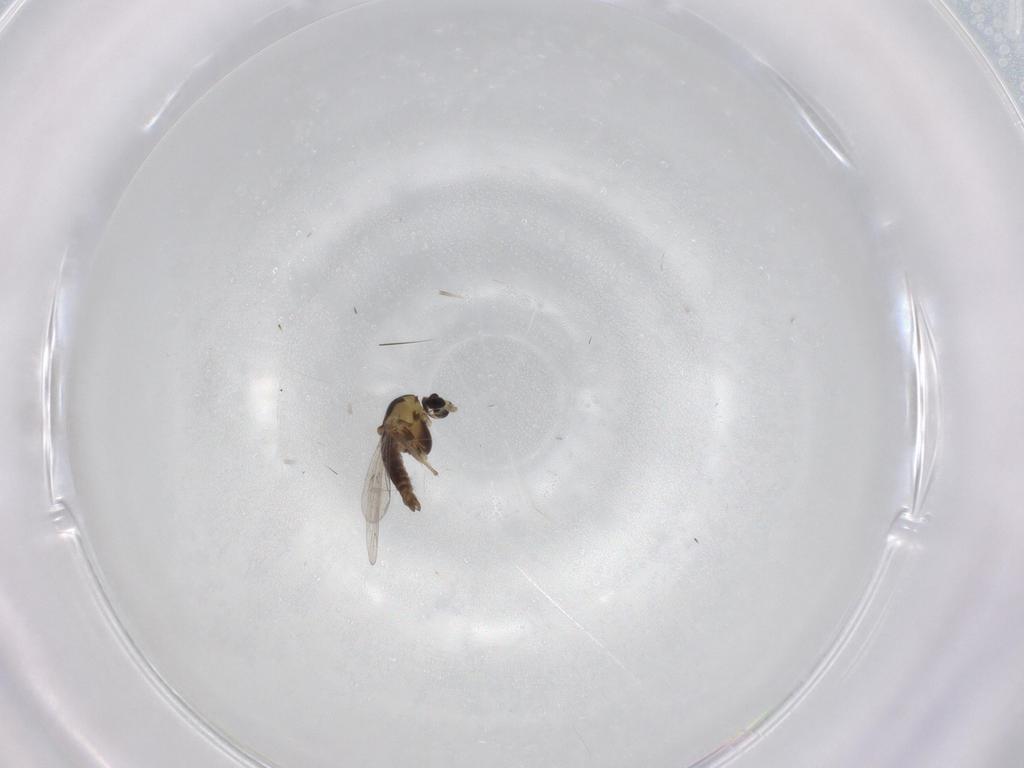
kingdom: Animalia
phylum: Arthropoda
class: Insecta
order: Diptera
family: Chironomidae
